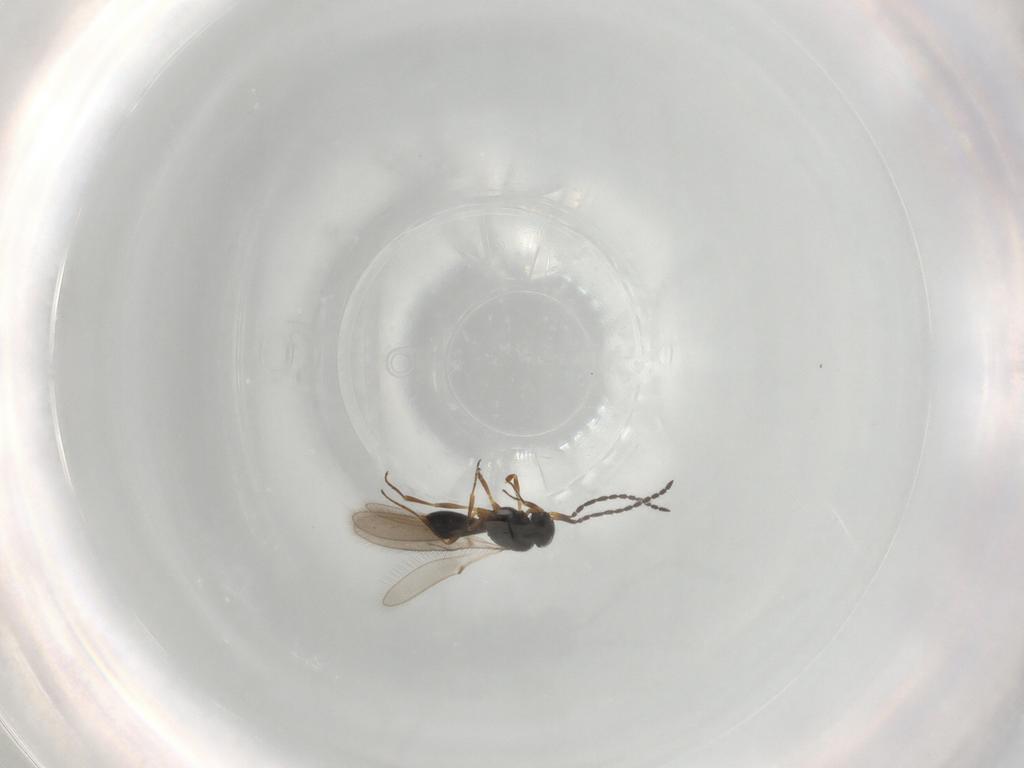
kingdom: Animalia
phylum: Arthropoda
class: Insecta
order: Hymenoptera
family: Scelionidae
